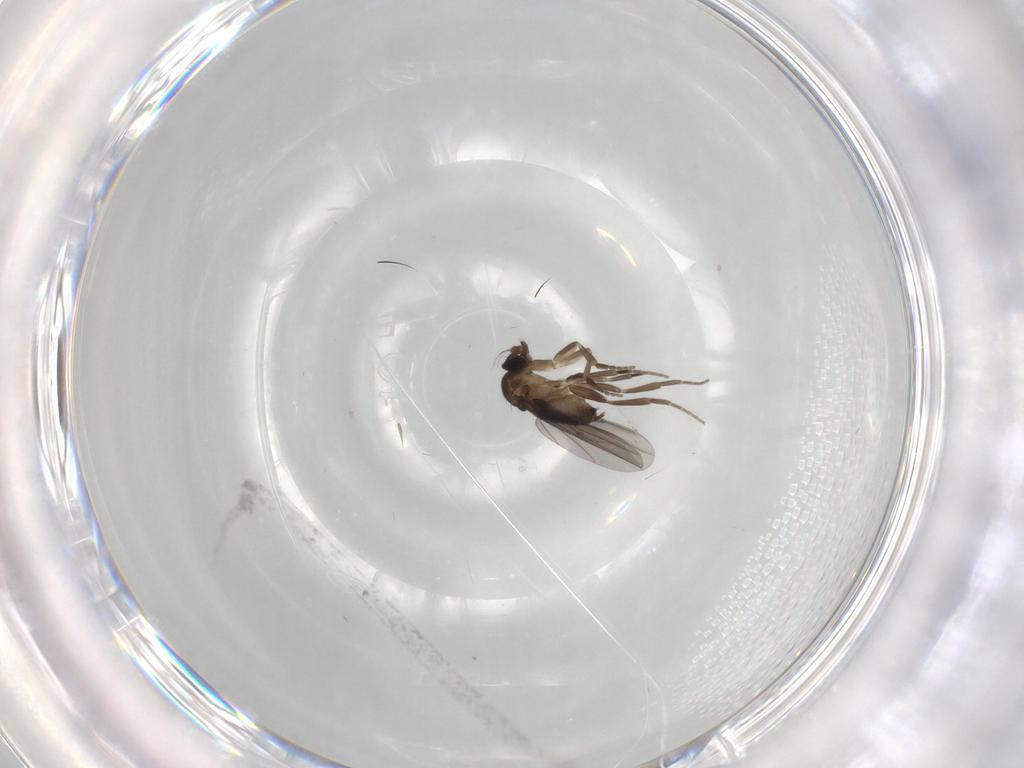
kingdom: Animalia
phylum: Arthropoda
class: Insecta
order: Diptera
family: Phoridae
